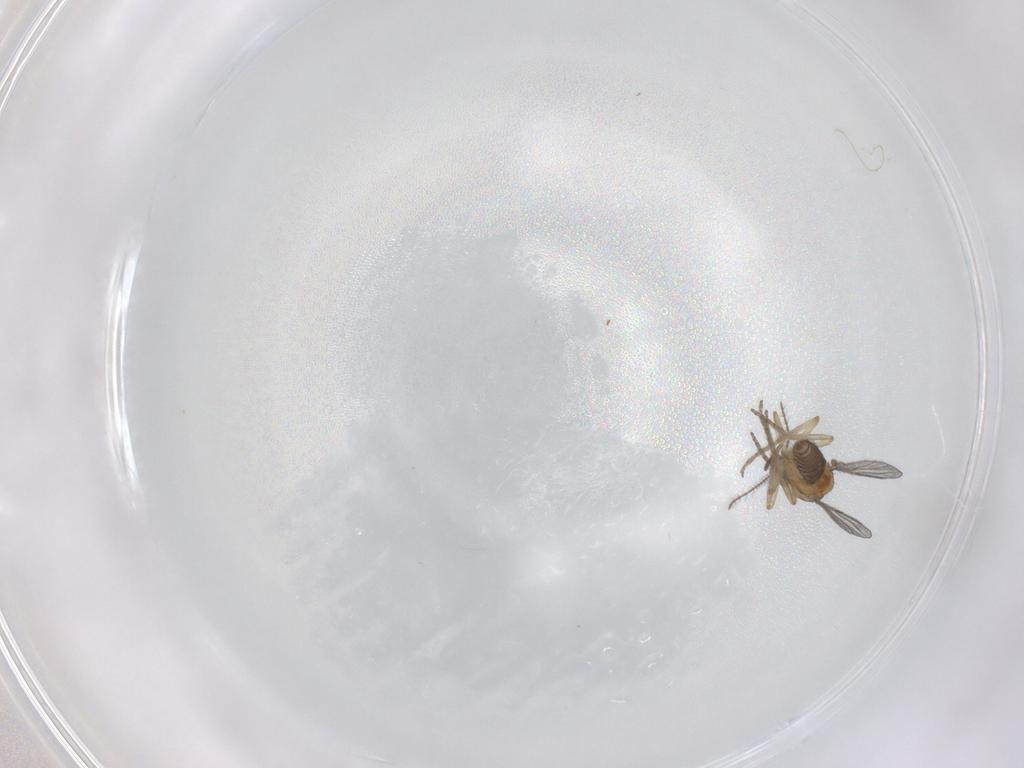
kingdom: Animalia
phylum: Arthropoda
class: Insecta
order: Diptera
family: Ceratopogonidae
